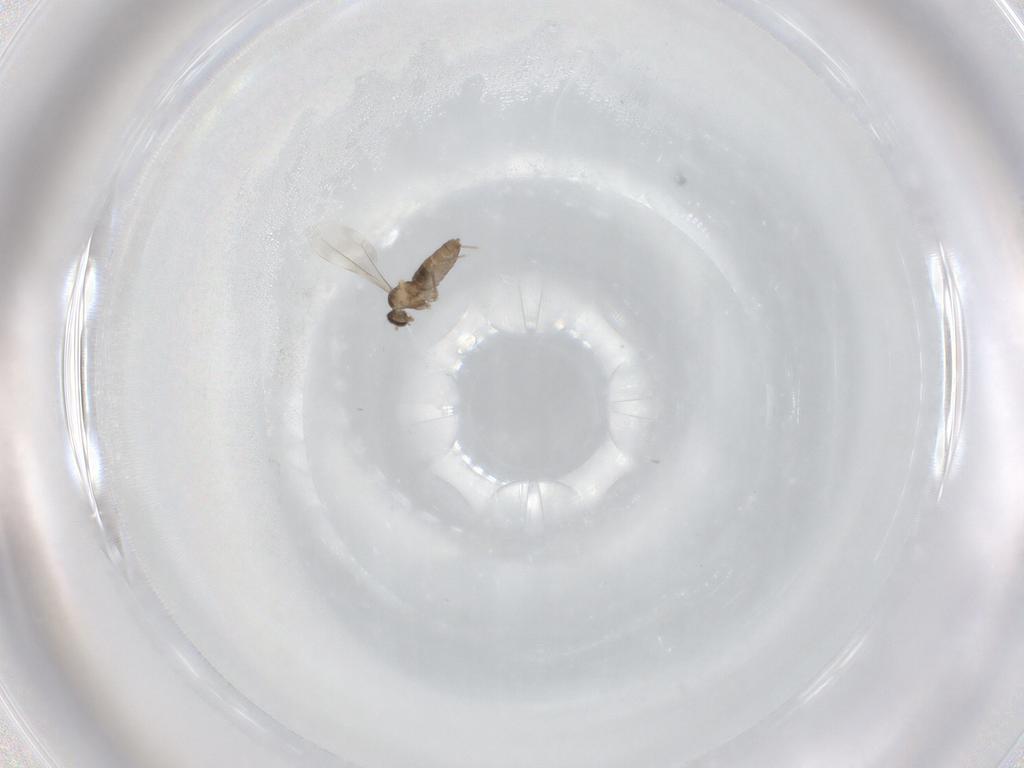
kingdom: Animalia
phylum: Arthropoda
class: Insecta
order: Diptera
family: Cecidomyiidae
